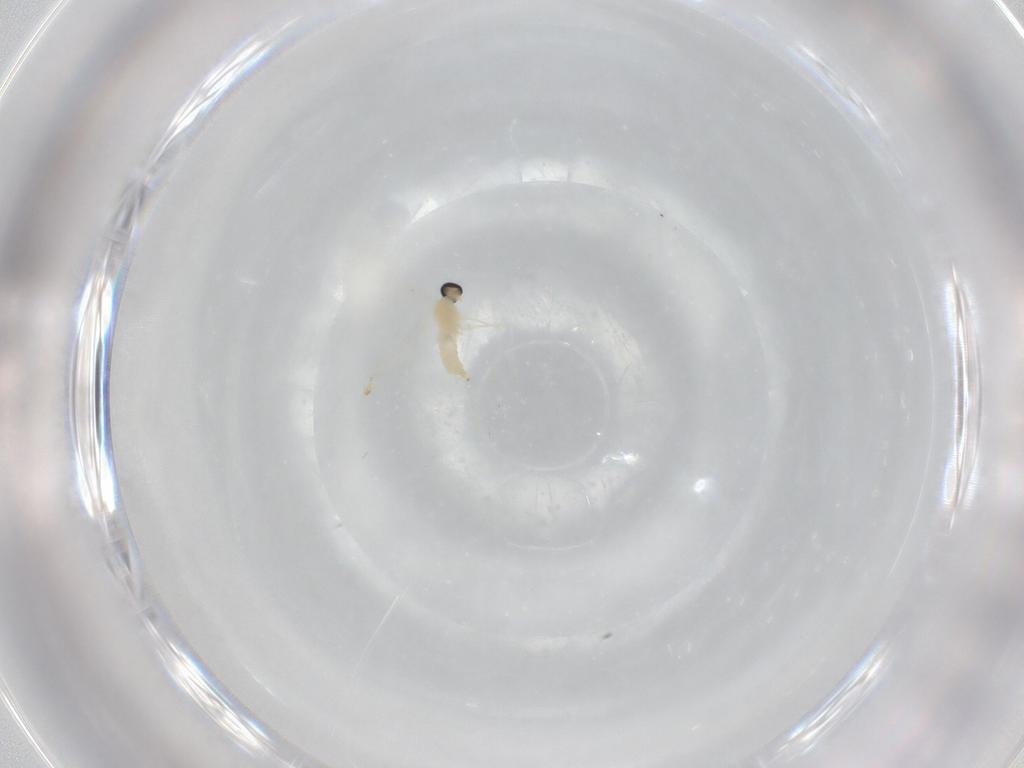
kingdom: Animalia
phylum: Arthropoda
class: Insecta
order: Diptera
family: Cecidomyiidae
